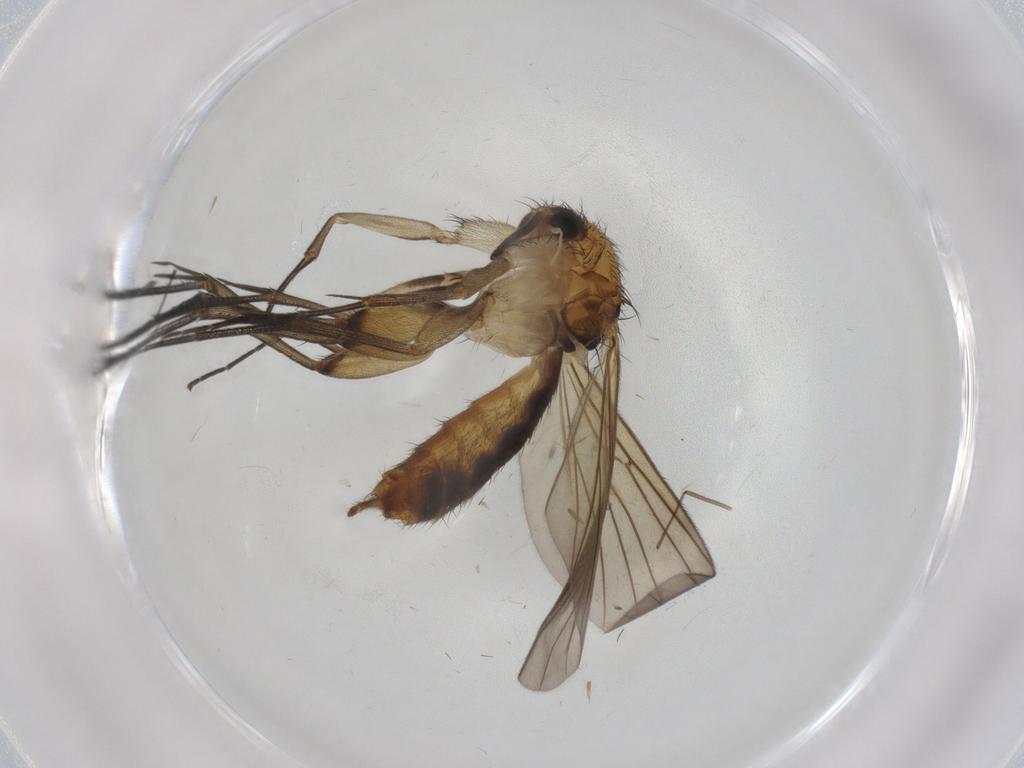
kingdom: Animalia
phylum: Arthropoda
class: Insecta
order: Diptera
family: Mycetophilidae
